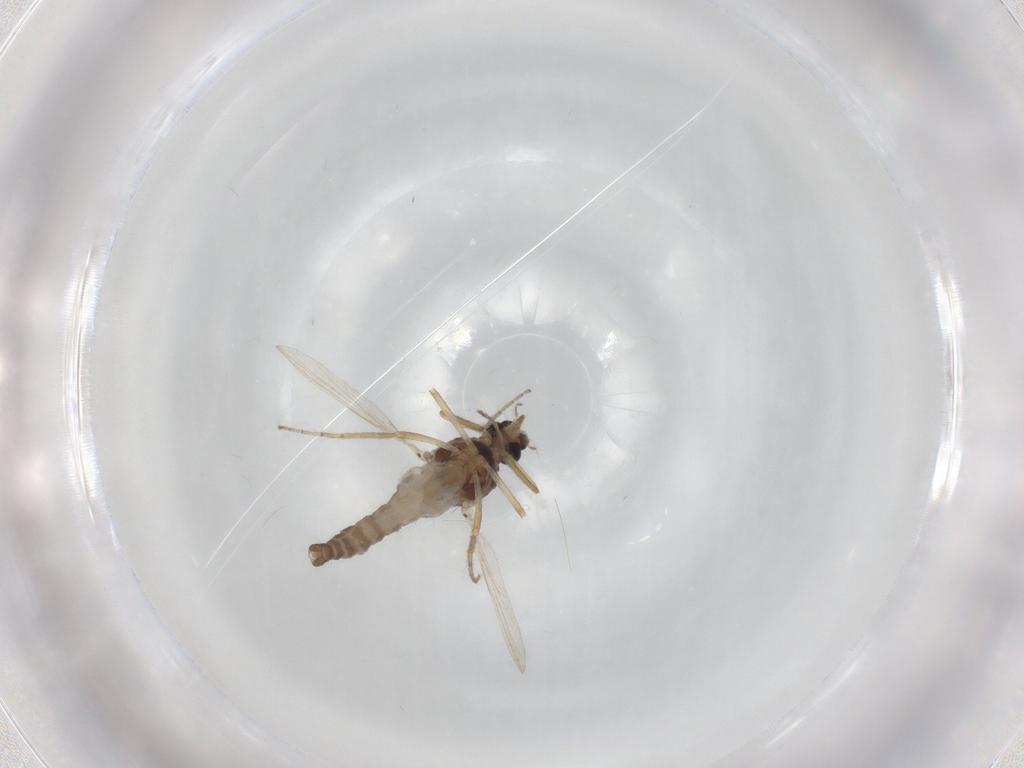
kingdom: Animalia
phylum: Arthropoda
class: Insecta
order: Diptera
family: Ceratopogonidae
